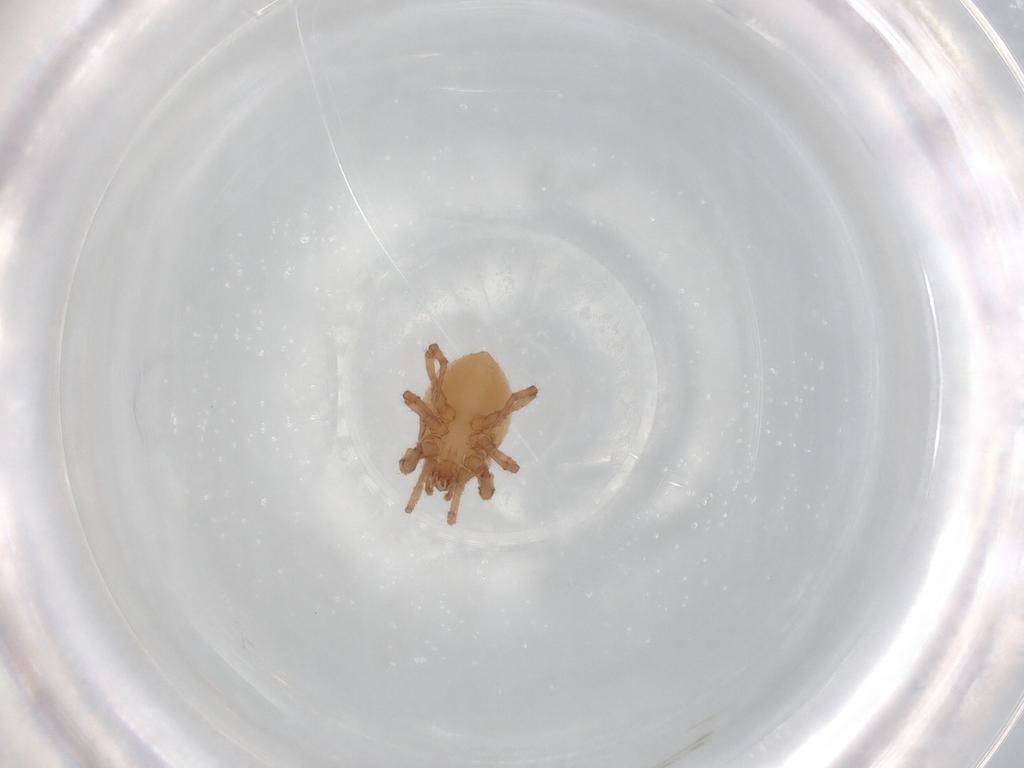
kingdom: Animalia
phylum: Arthropoda
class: Arachnida
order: Mesostigmata
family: Parasitidae
